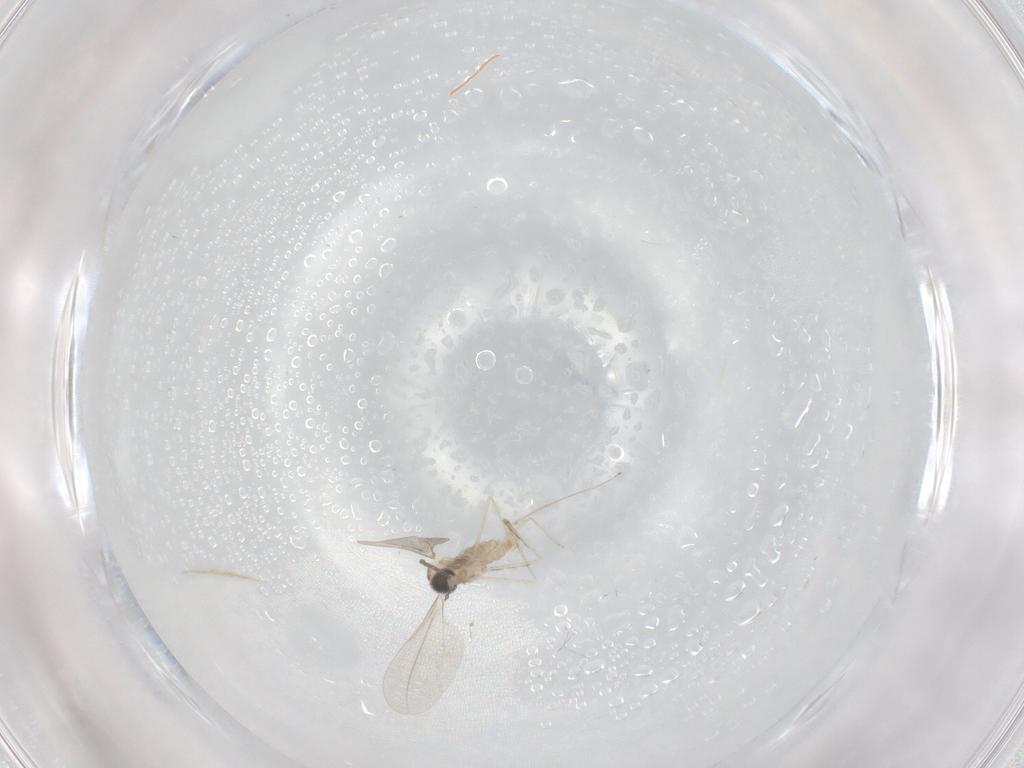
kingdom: Animalia
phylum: Arthropoda
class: Insecta
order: Diptera
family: Cecidomyiidae
